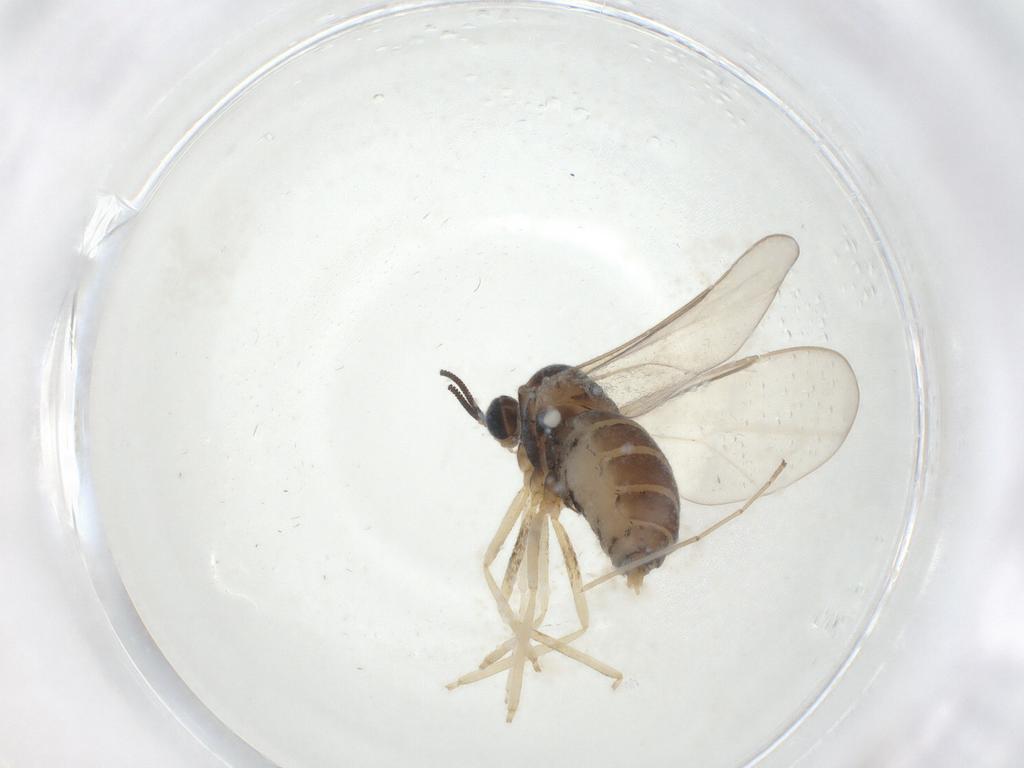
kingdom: Animalia
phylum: Arthropoda
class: Insecta
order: Diptera
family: Cecidomyiidae
